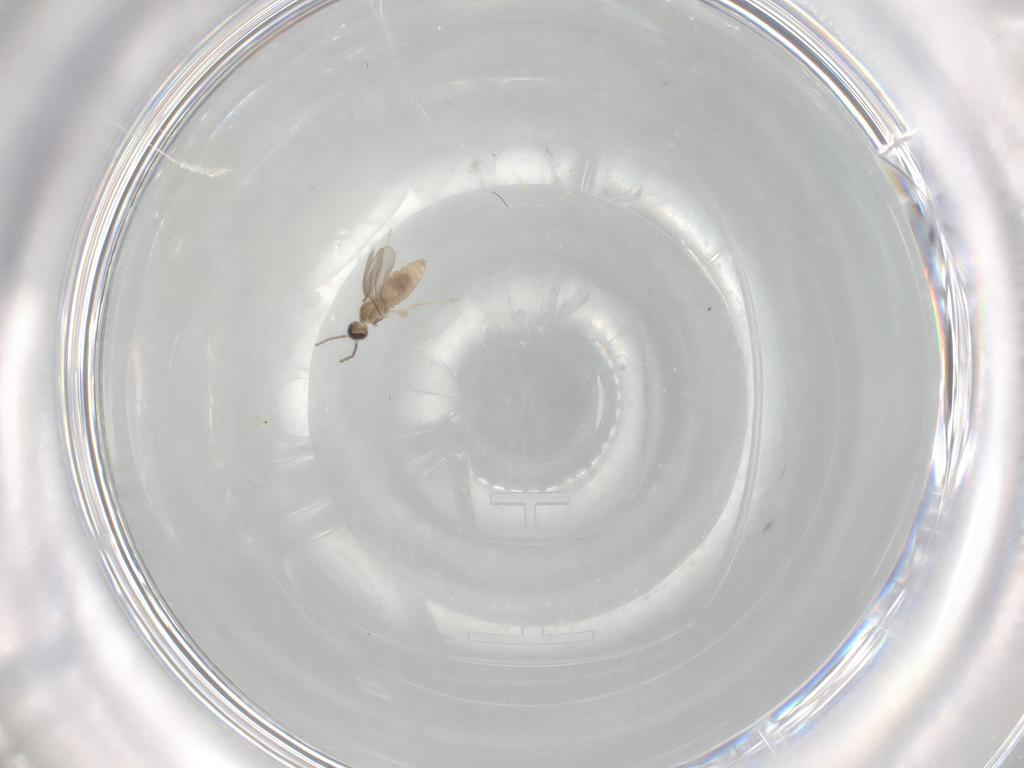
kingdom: Animalia
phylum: Arthropoda
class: Insecta
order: Diptera
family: Cecidomyiidae
